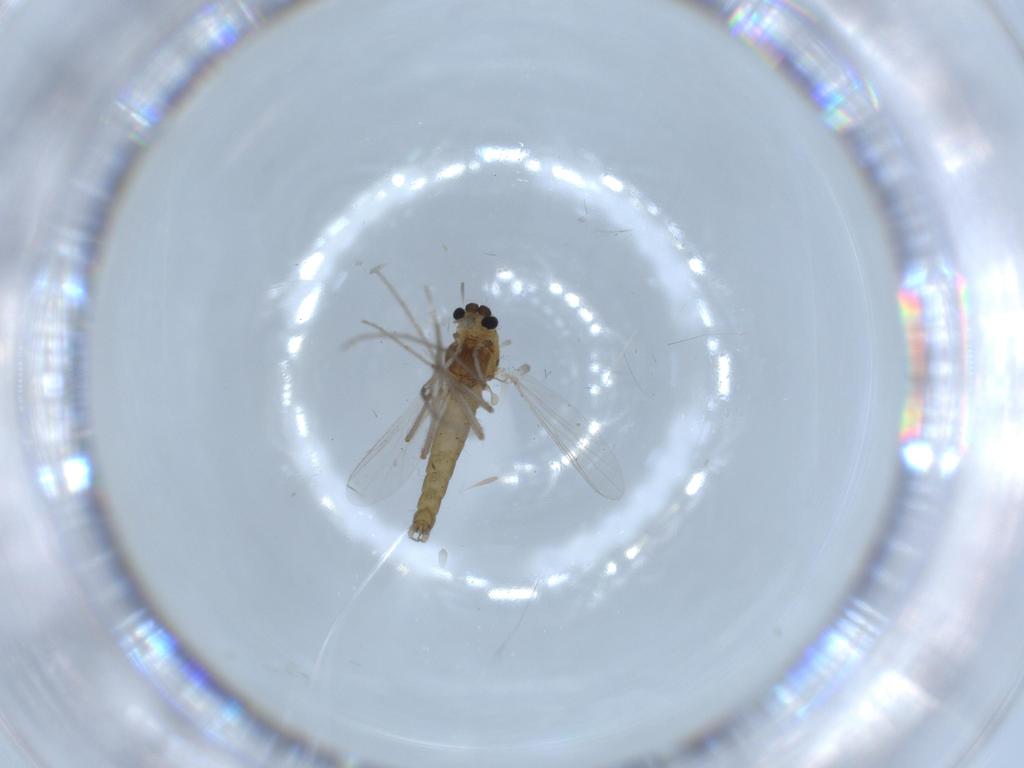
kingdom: Animalia
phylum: Arthropoda
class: Insecta
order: Diptera
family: Chironomidae
